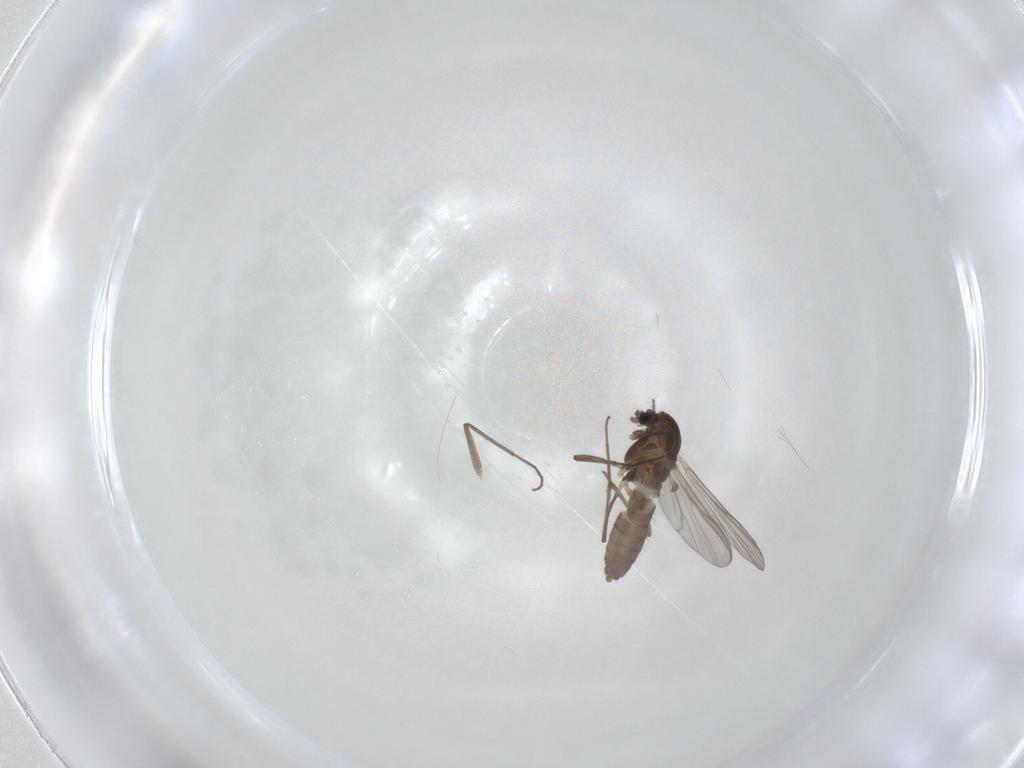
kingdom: Animalia
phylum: Arthropoda
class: Insecta
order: Diptera
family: Chironomidae
